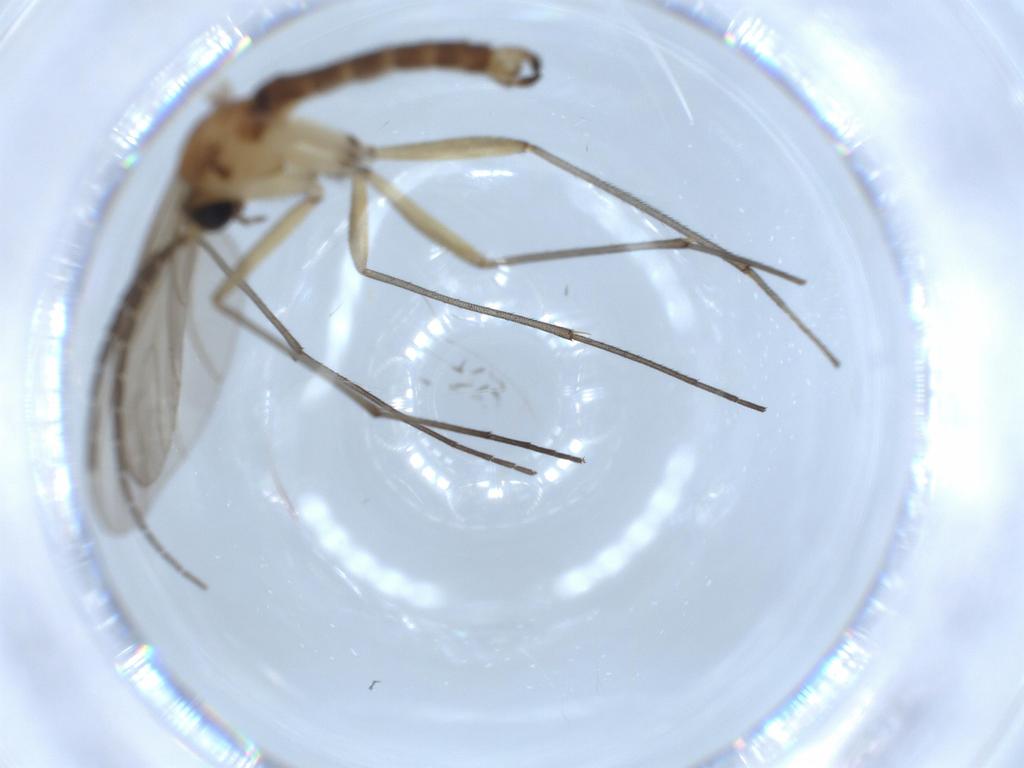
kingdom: Animalia
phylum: Arthropoda
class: Insecta
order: Diptera
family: Sciaridae
